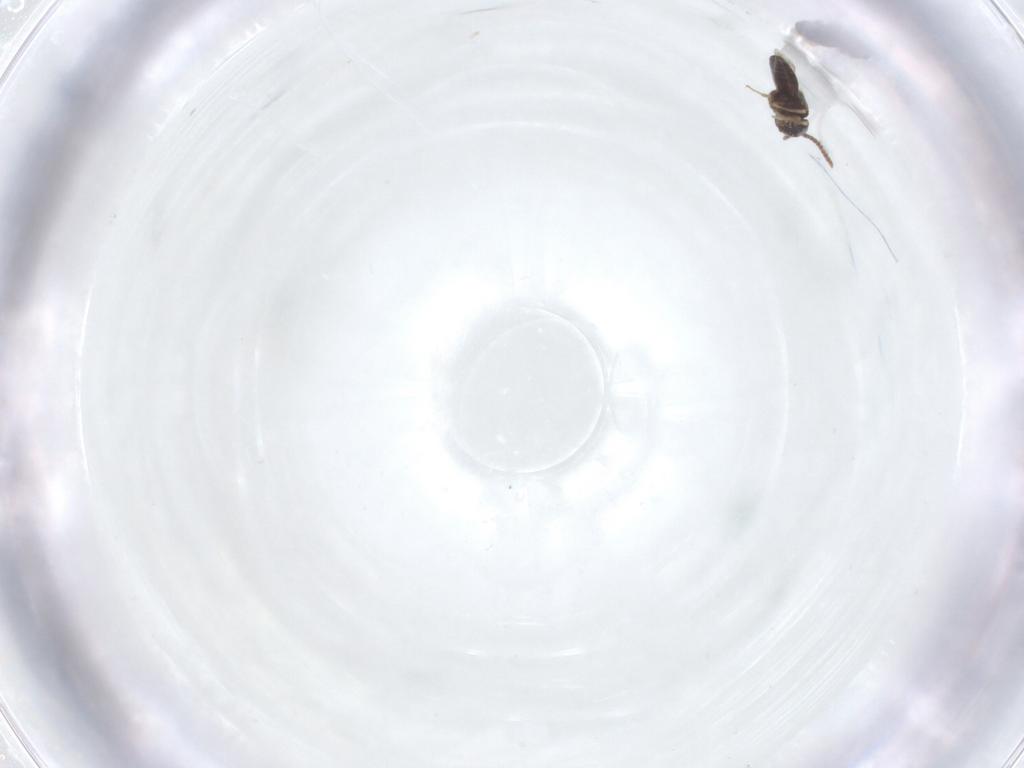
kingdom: Animalia
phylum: Arthropoda
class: Insecta
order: Hymenoptera
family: Scelionidae
